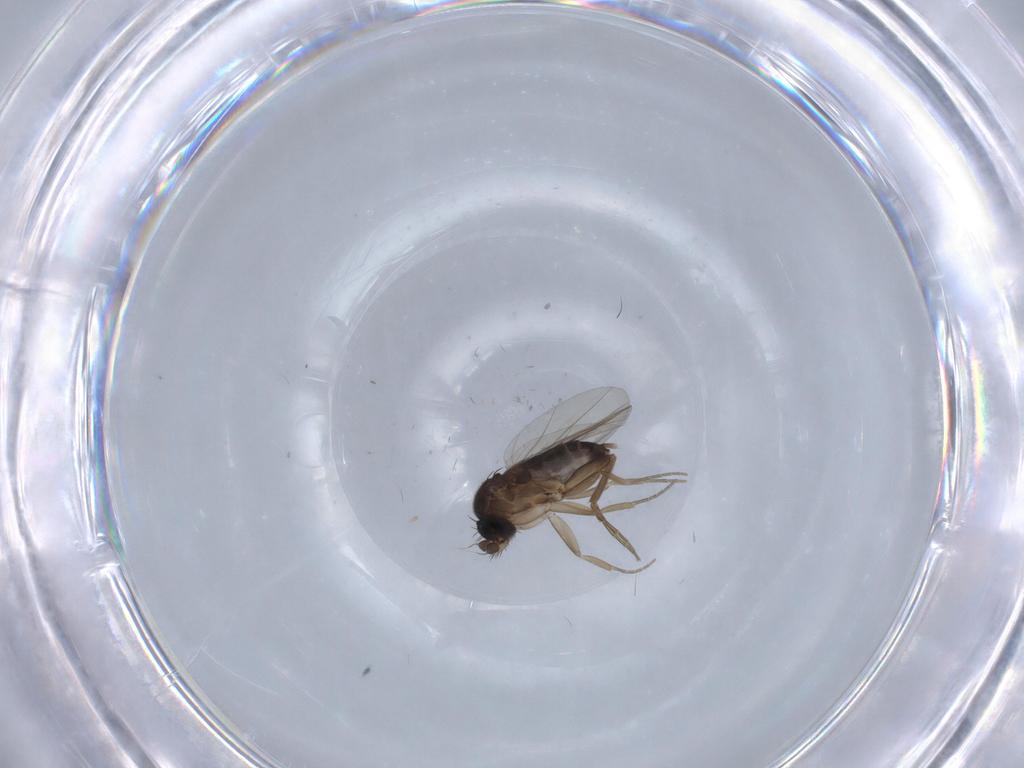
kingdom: Animalia
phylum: Arthropoda
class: Insecta
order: Diptera
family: Phoridae
